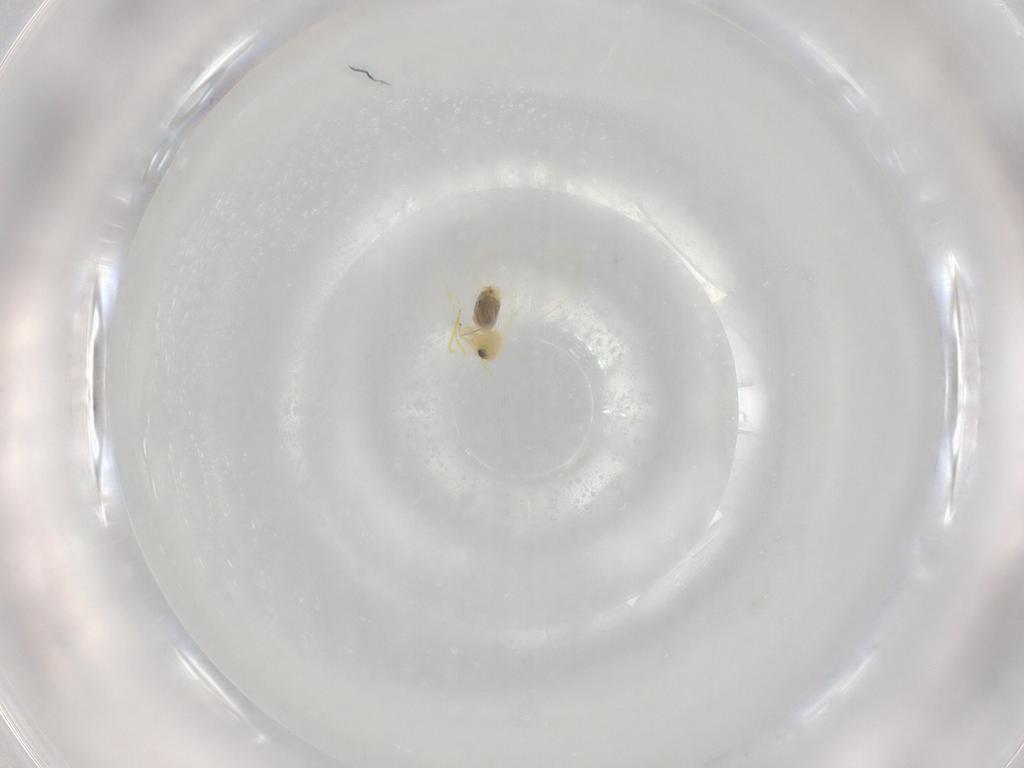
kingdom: Animalia
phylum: Arthropoda
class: Insecta
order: Hemiptera
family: Aleyrodidae
